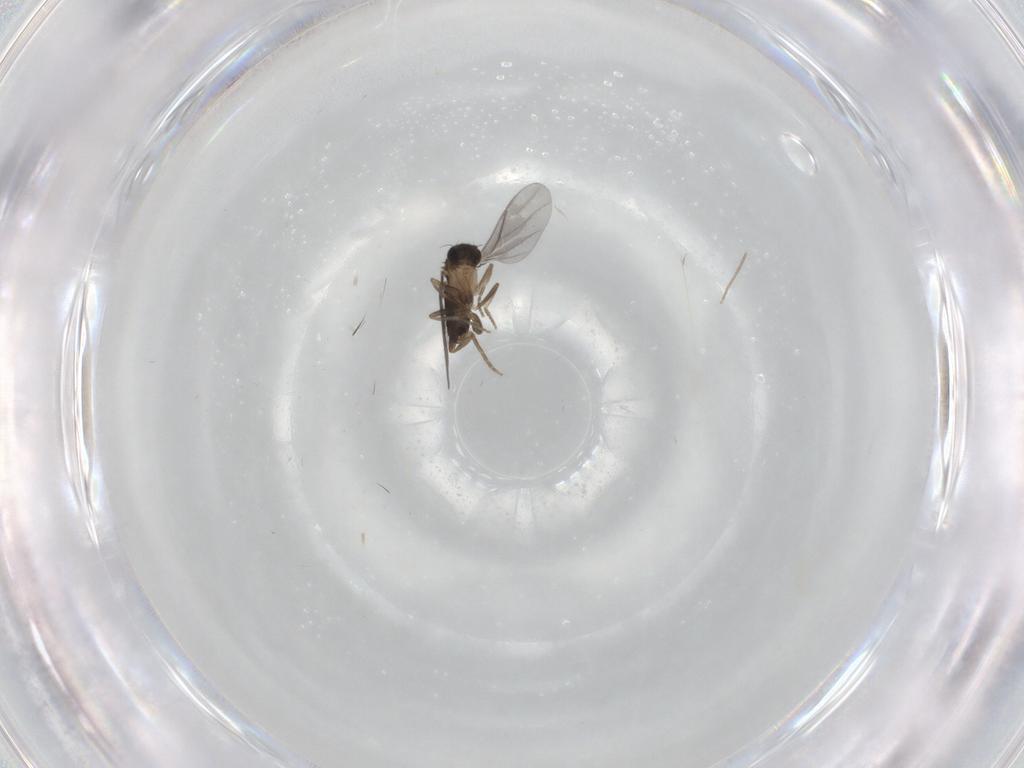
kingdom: Animalia
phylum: Arthropoda
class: Insecta
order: Diptera
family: Chironomidae
